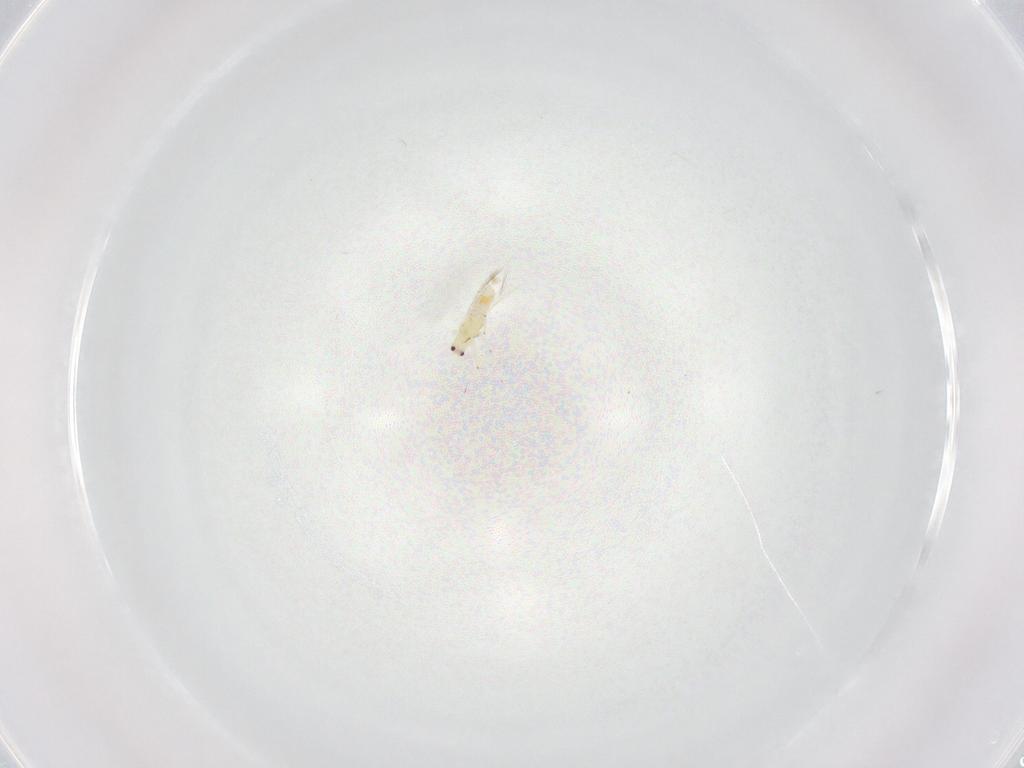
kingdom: Animalia
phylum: Arthropoda
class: Insecta
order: Thysanoptera
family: Thripidae
